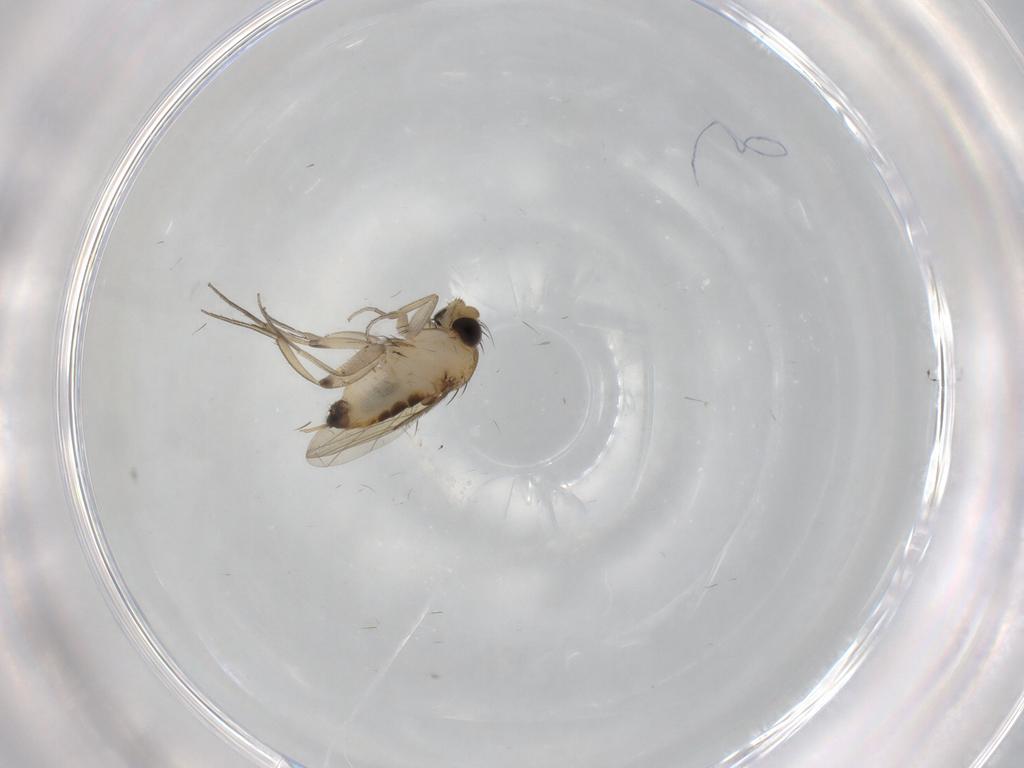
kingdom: Animalia
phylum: Arthropoda
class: Insecta
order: Diptera
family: Phoridae
